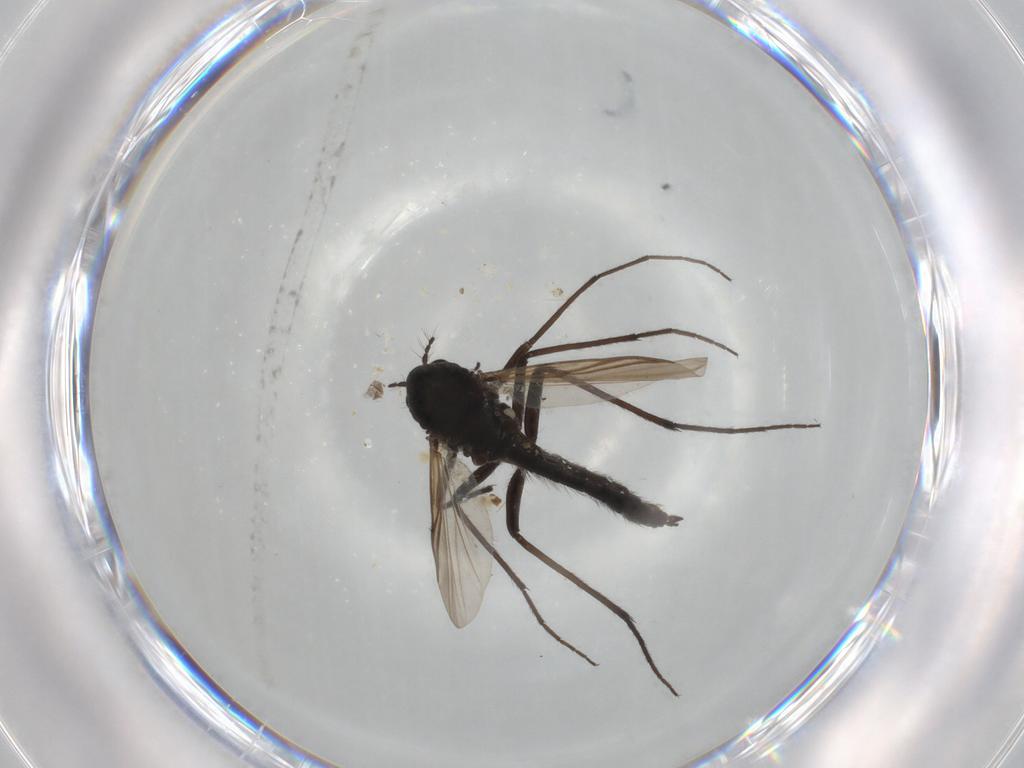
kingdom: Animalia
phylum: Arthropoda
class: Insecta
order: Diptera
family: Chironomidae
